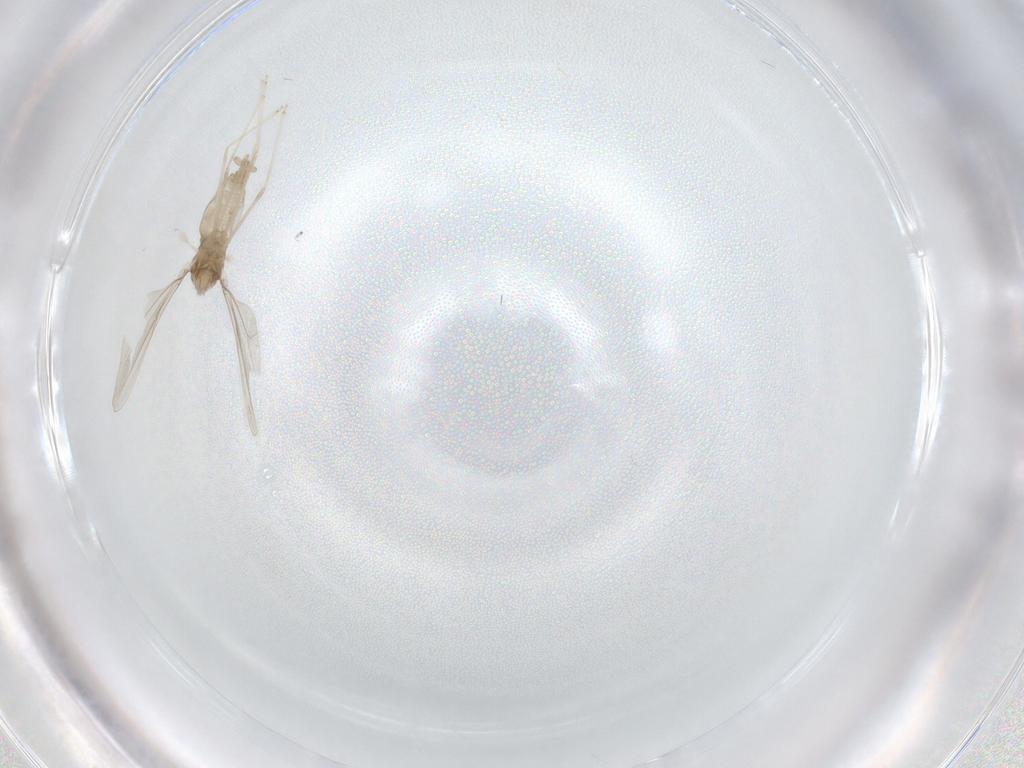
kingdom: Animalia
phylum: Arthropoda
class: Insecta
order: Diptera
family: Cecidomyiidae
